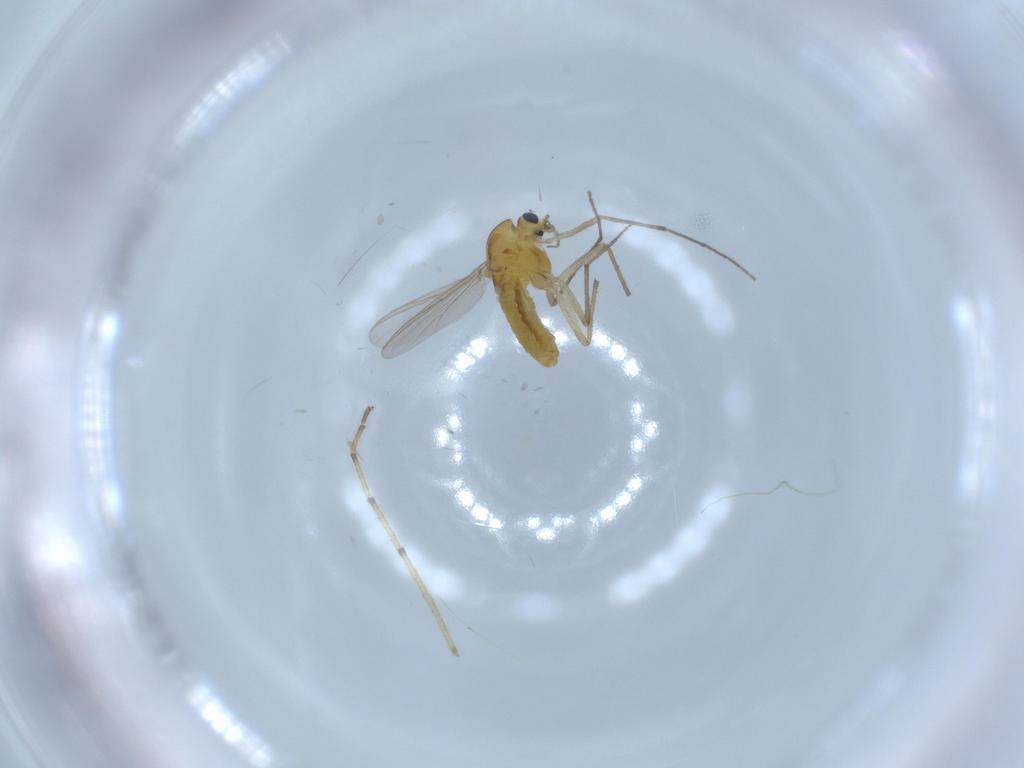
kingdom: Animalia
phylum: Arthropoda
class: Insecta
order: Diptera
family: Chironomidae
